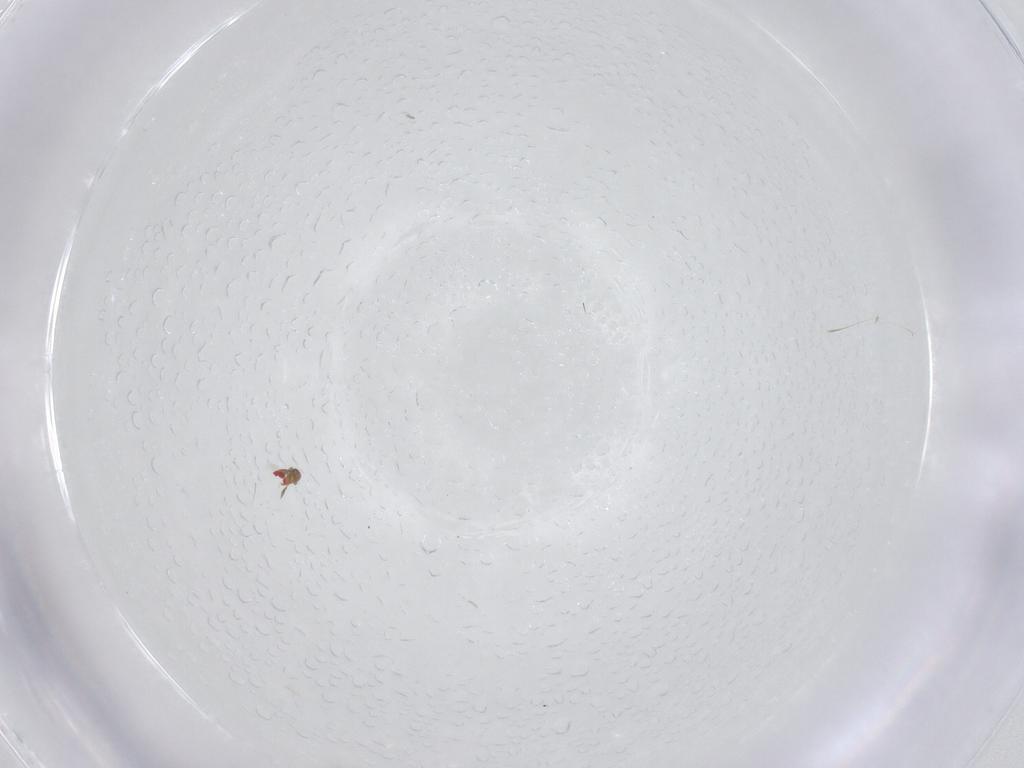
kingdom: Animalia
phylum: Arthropoda
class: Insecta
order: Hymenoptera
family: Trichogrammatidae
